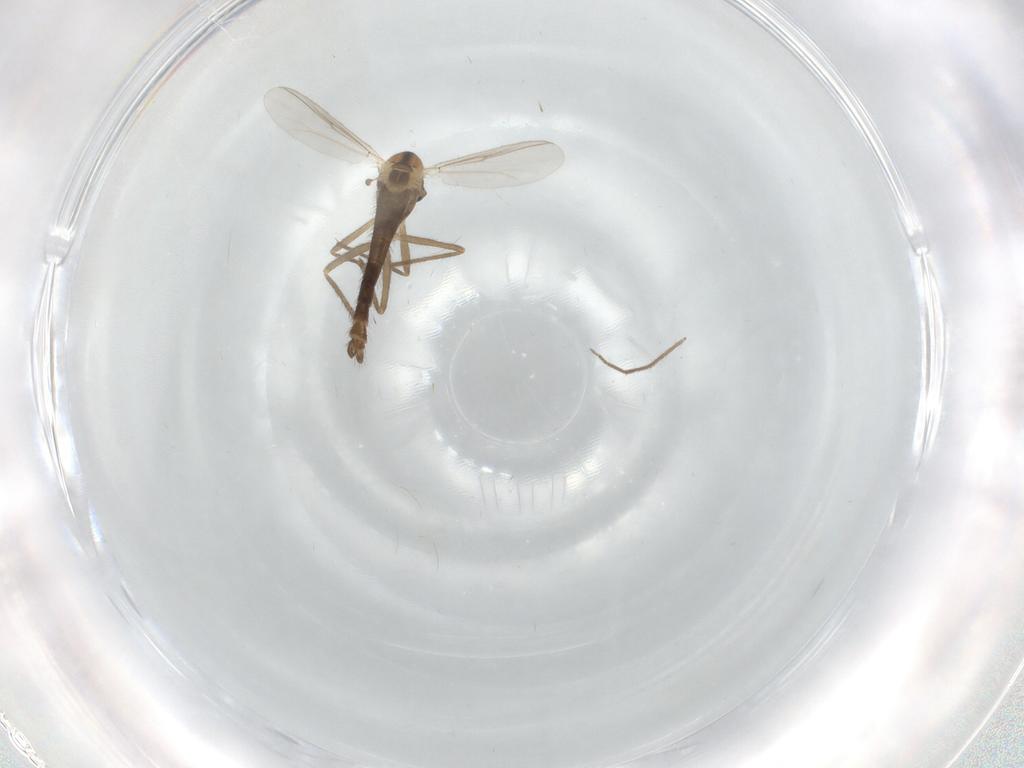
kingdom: Animalia
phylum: Arthropoda
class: Insecta
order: Diptera
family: Chironomidae
